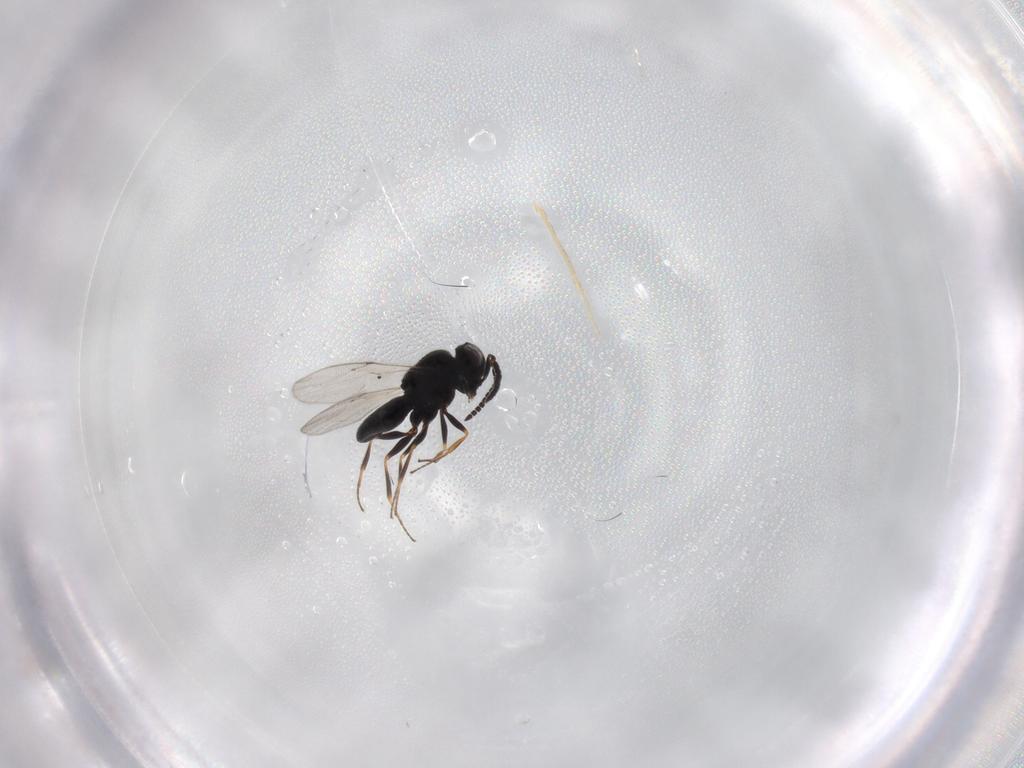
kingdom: Animalia
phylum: Arthropoda
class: Insecta
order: Hymenoptera
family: Scelionidae
